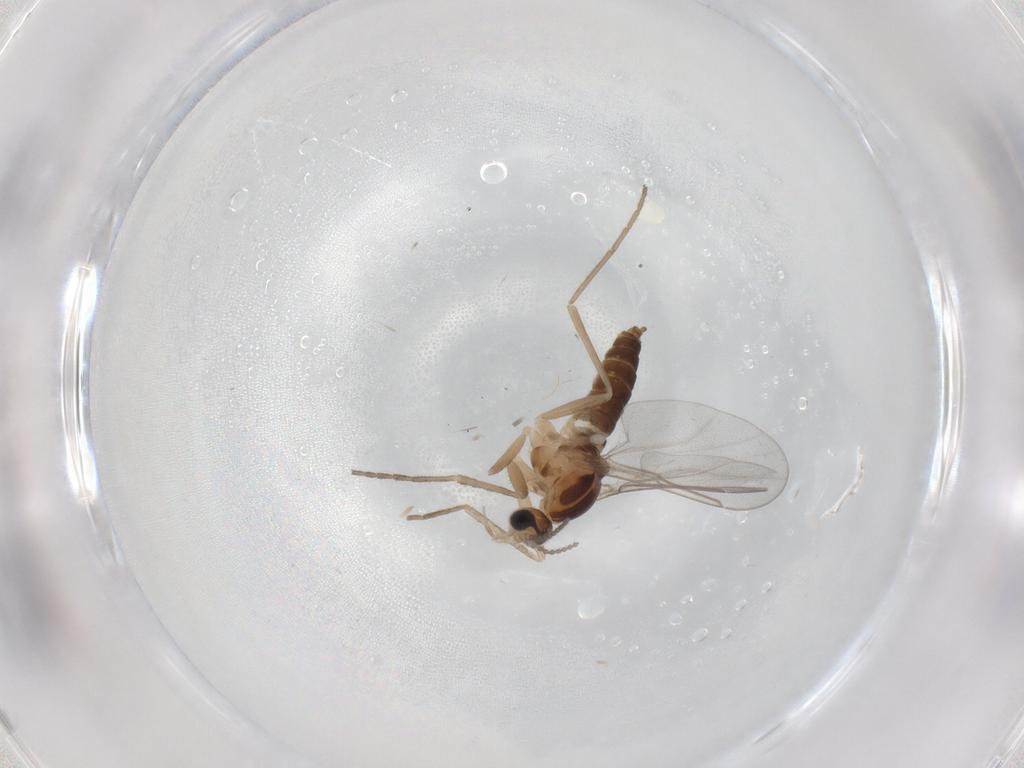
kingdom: Animalia
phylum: Arthropoda
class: Insecta
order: Diptera
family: Cecidomyiidae
